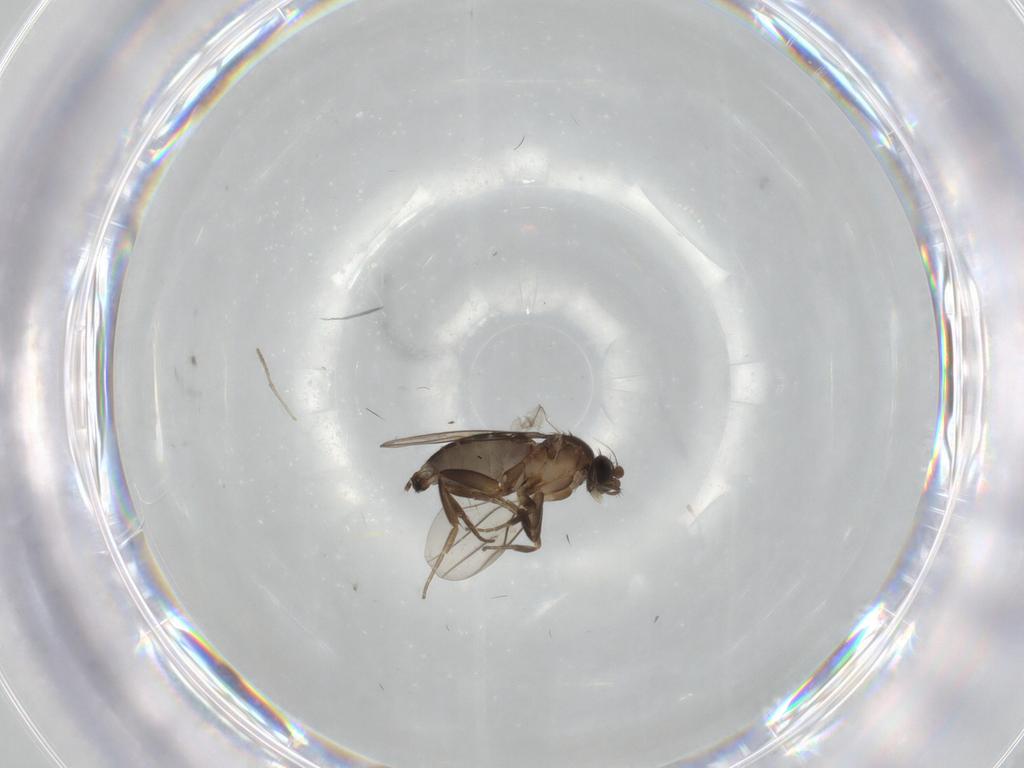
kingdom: Animalia
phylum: Arthropoda
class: Insecta
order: Diptera
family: Phoridae
